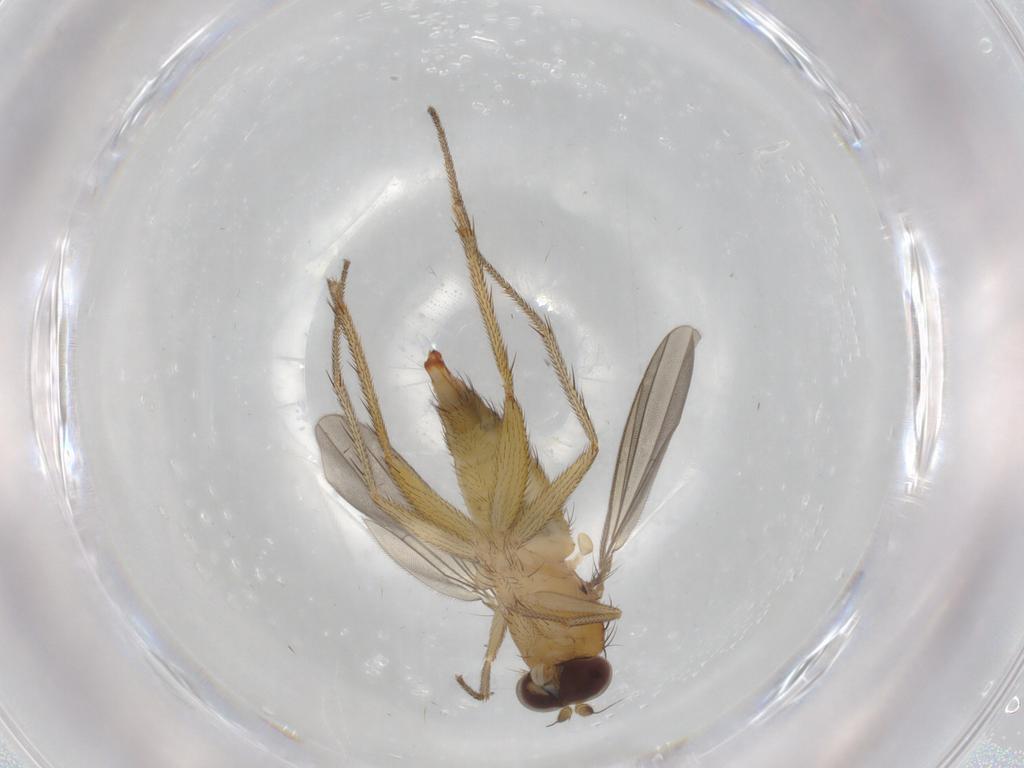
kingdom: Animalia
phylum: Arthropoda
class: Insecta
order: Diptera
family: Dolichopodidae
